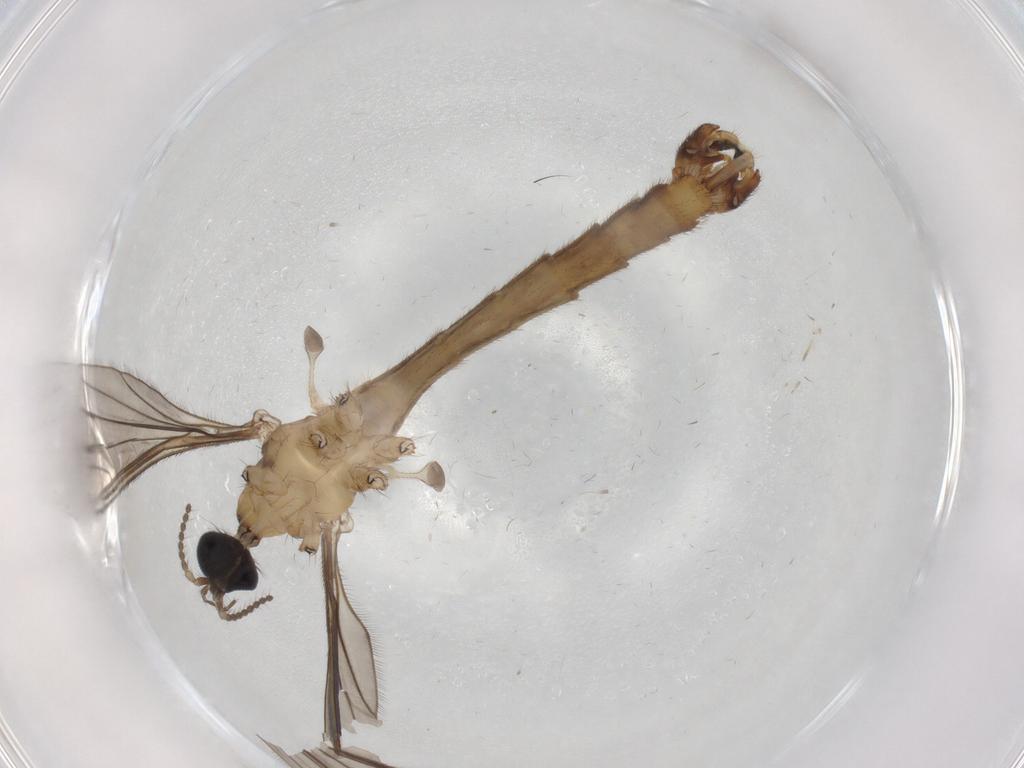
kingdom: Animalia
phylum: Arthropoda
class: Insecta
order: Diptera
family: Limoniidae
